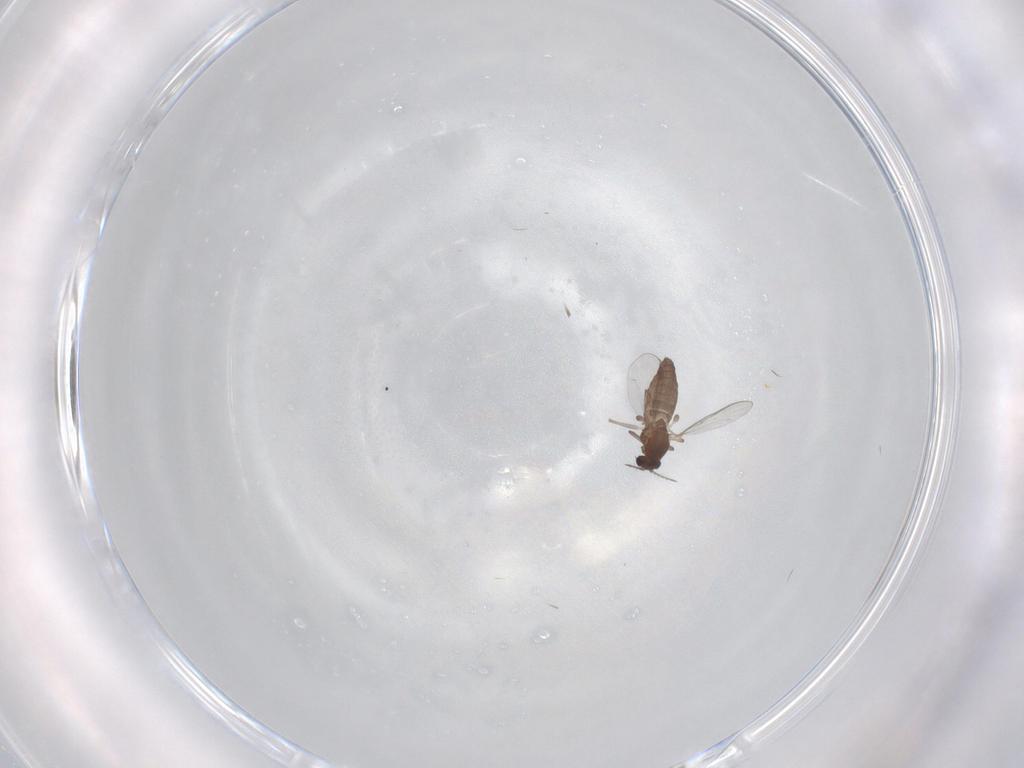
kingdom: Animalia
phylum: Arthropoda
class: Insecta
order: Diptera
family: Chironomidae
